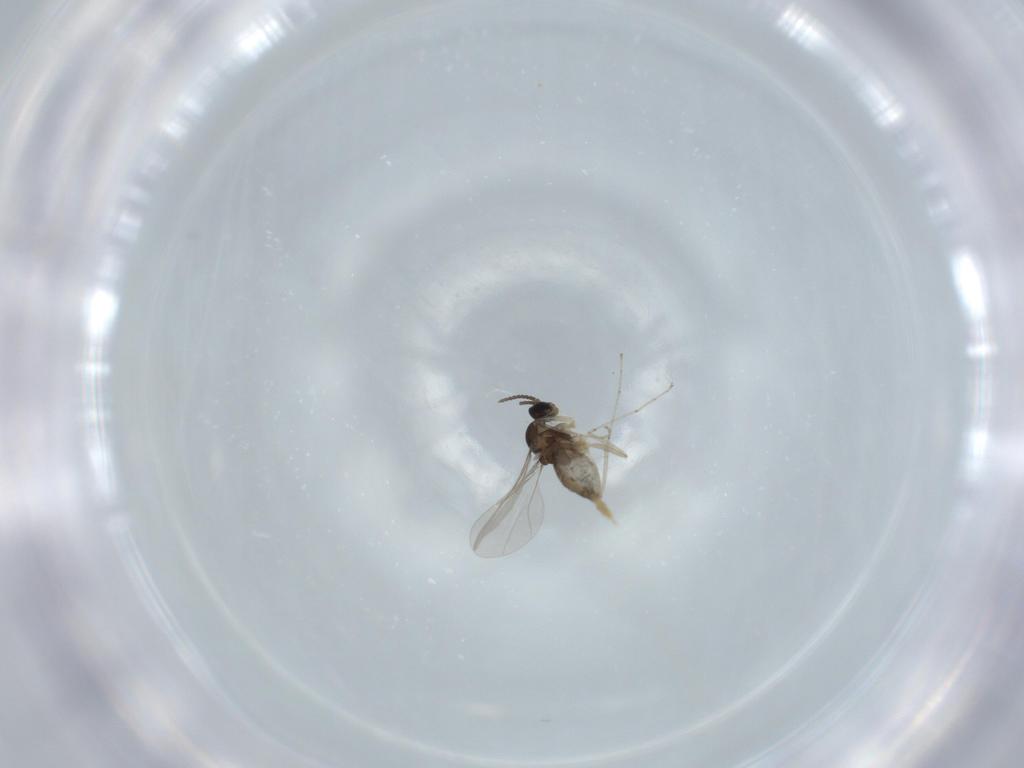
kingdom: Animalia
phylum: Arthropoda
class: Insecta
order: Diptera
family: Cecidomyiidae
